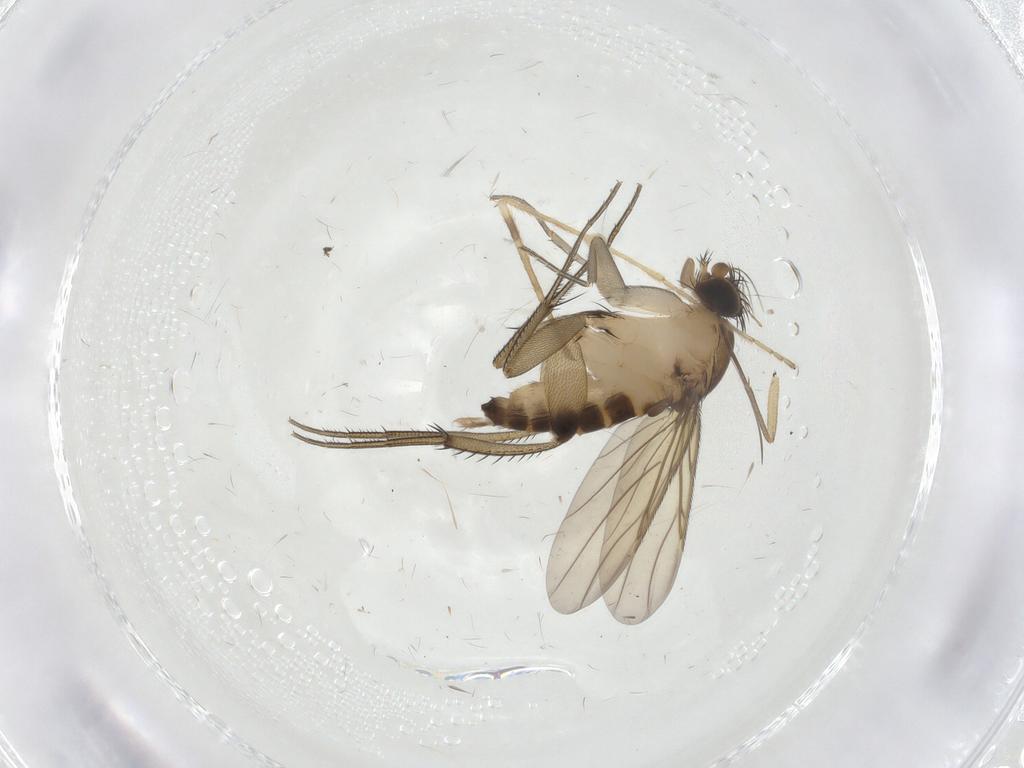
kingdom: Animalia
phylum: Arthropoda
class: Insecta
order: Diptera
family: Phoridae
